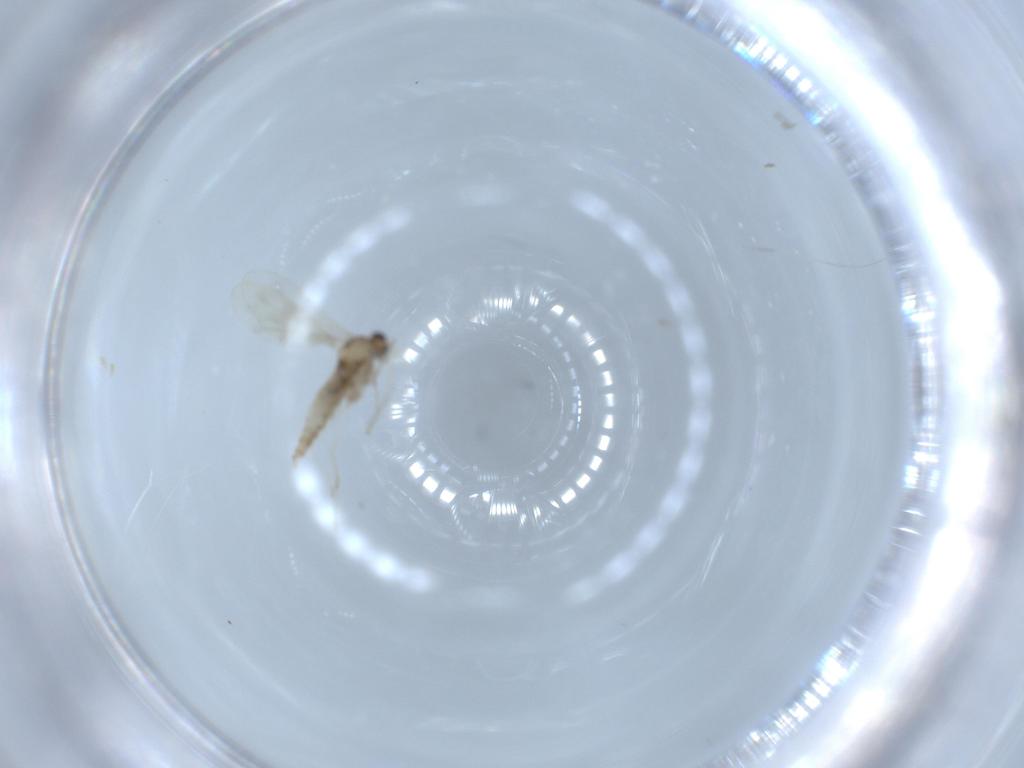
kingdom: Animalia
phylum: Arthropoda
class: Insecta
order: Diptera
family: Cecidomyiidae
